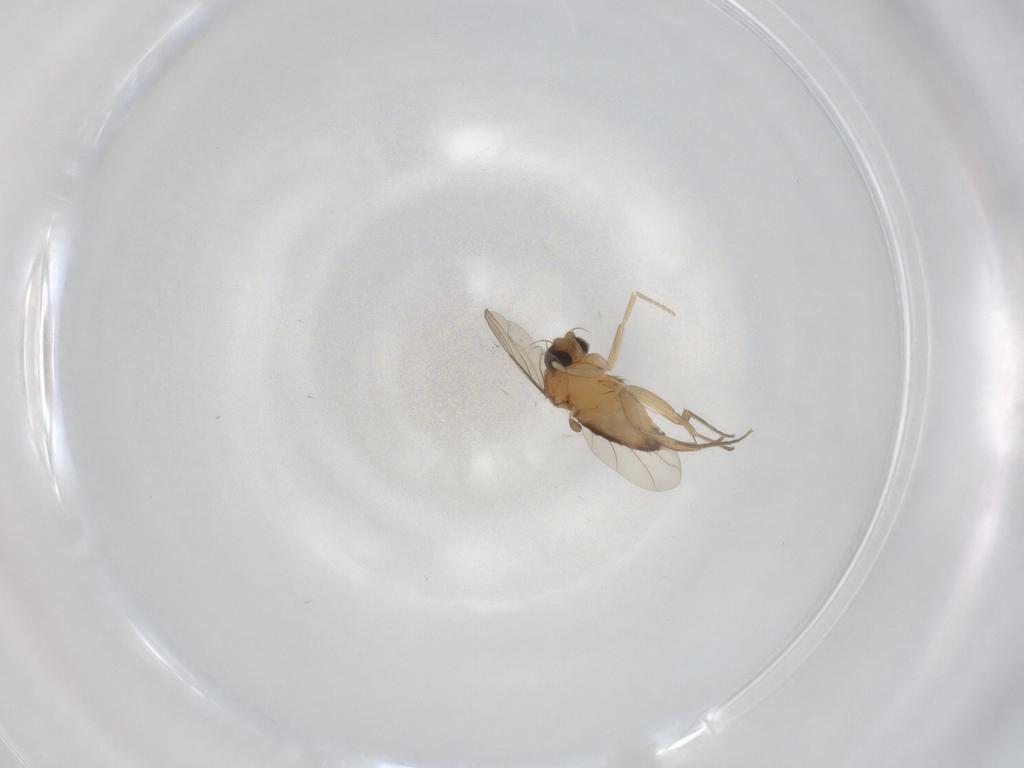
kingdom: Animalia
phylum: Arthropoda
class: Insecta
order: Diptera
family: Phoridae
